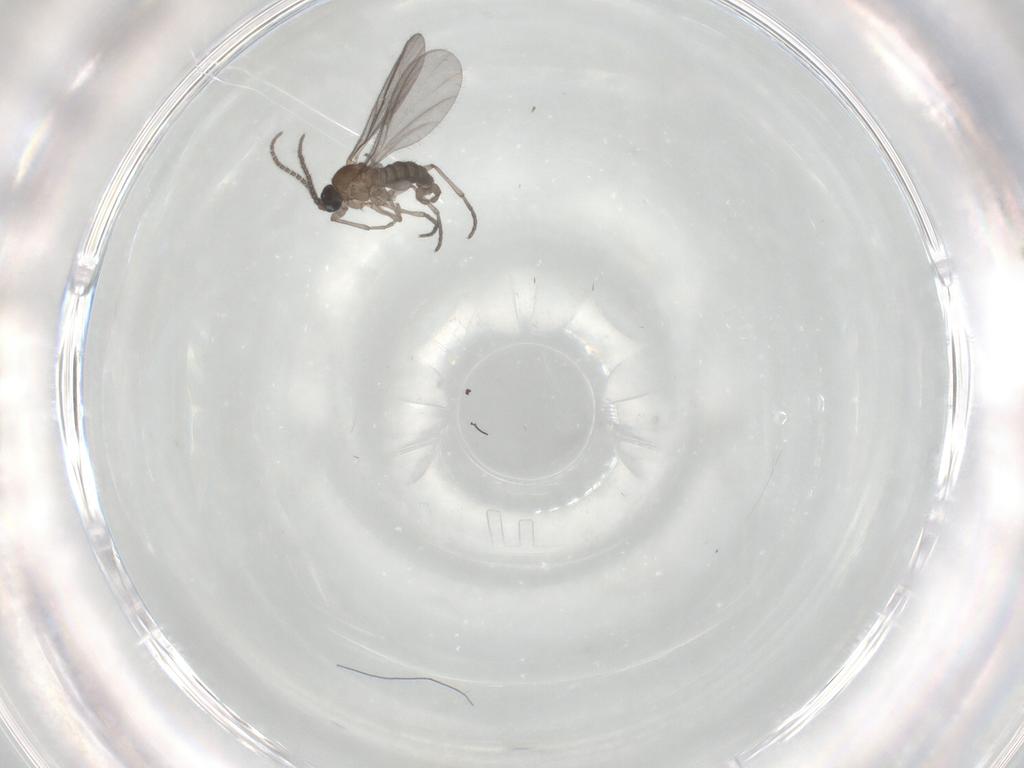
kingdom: Animalia
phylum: Arthropoda
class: Insecta
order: Diptera
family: Sciaridae
